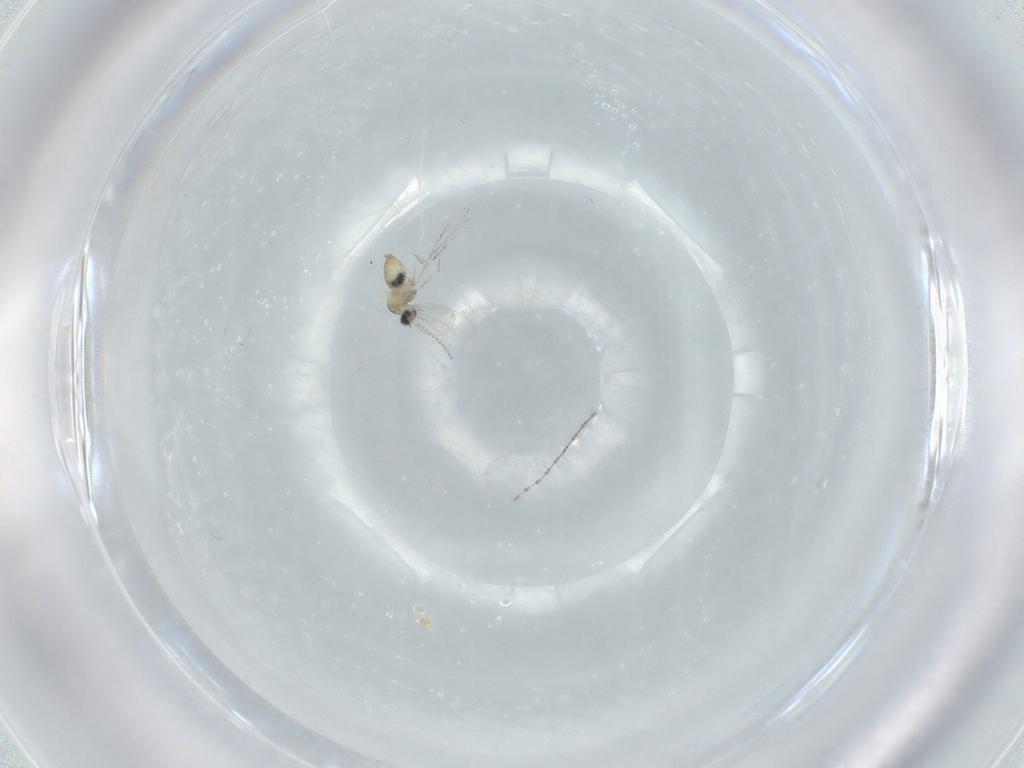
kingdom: Animalia
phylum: Arthropoda
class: Insecta
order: Diptera
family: Cecidomyiidae
